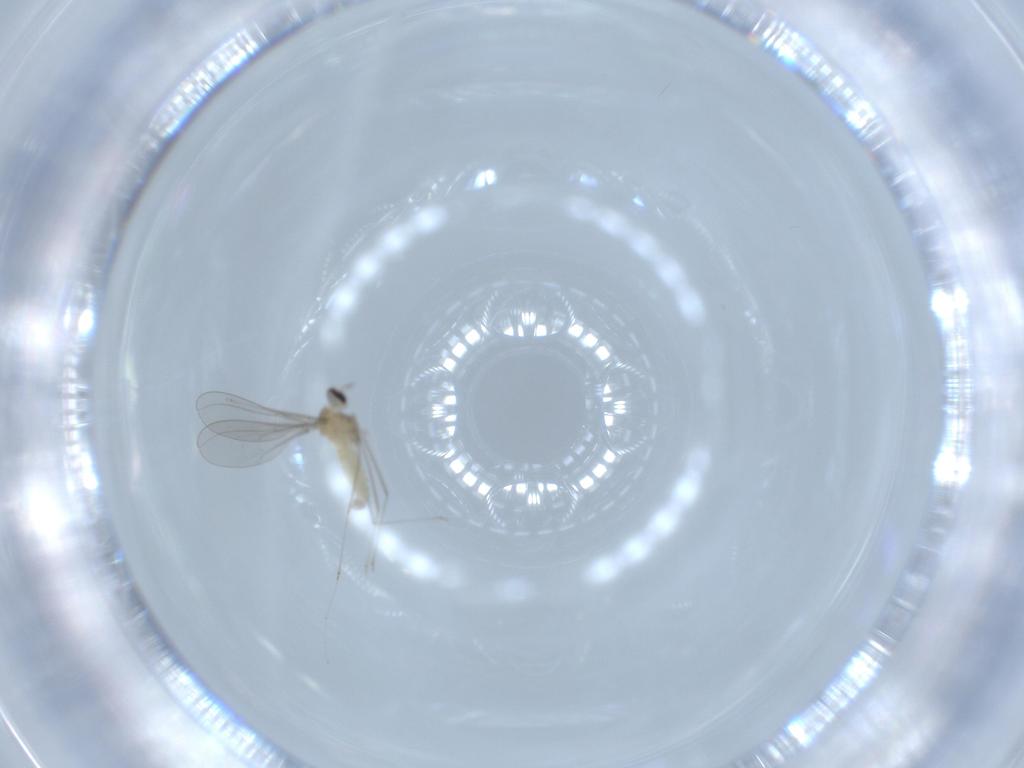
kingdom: Animalia
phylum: Arthropoda
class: Insecta
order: Diptera
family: Cecidomyiidae
